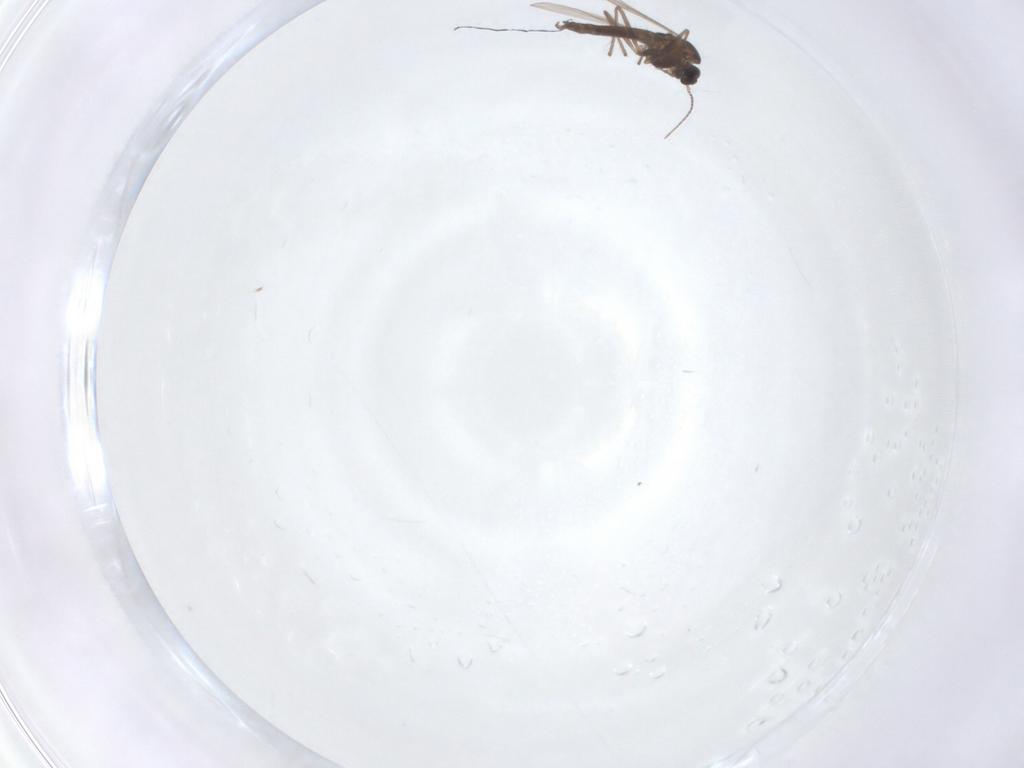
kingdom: Animalia
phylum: Arthropoda
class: Insecta
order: Diptera
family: Chironomidae
